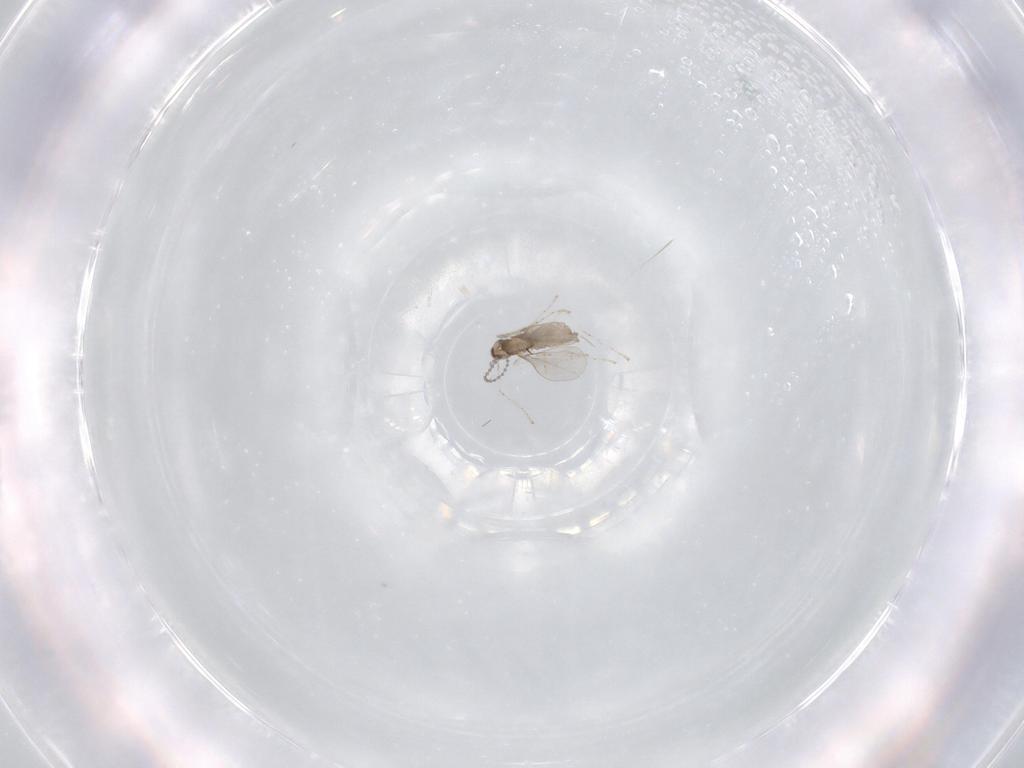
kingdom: Animalia
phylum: Arthropoda
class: Insecta
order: Diptera
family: Cecidomyiidae
